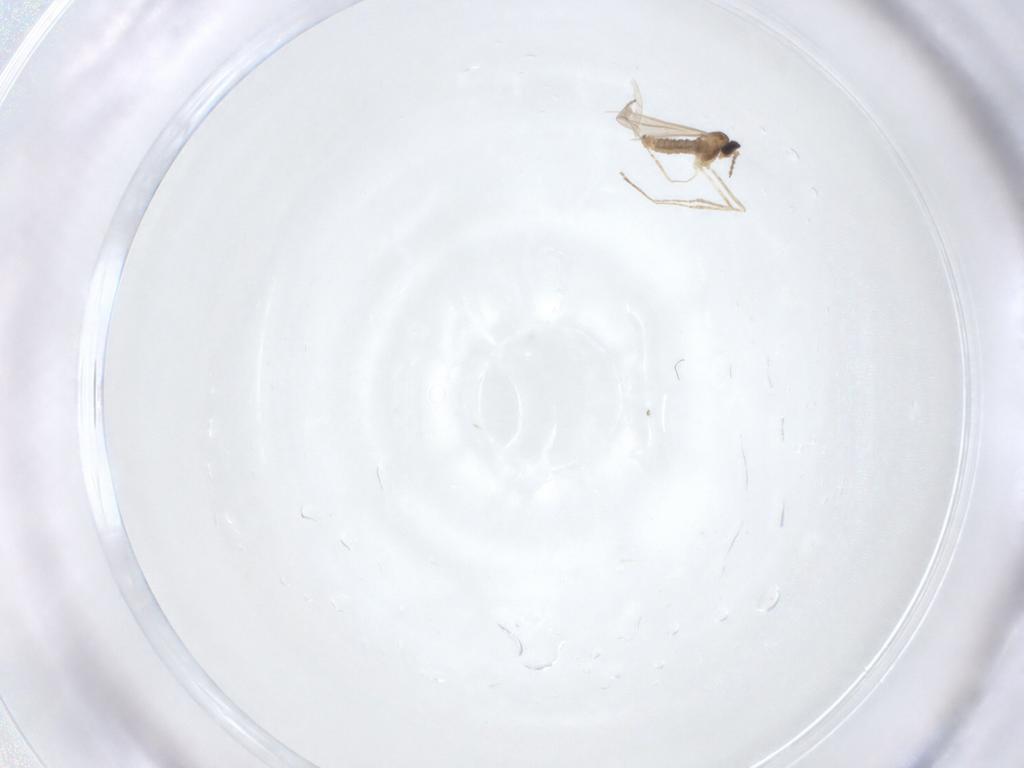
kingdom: Animalia
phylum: Arthropoda
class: Insecta
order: Diptera
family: Cecidomyiidae
